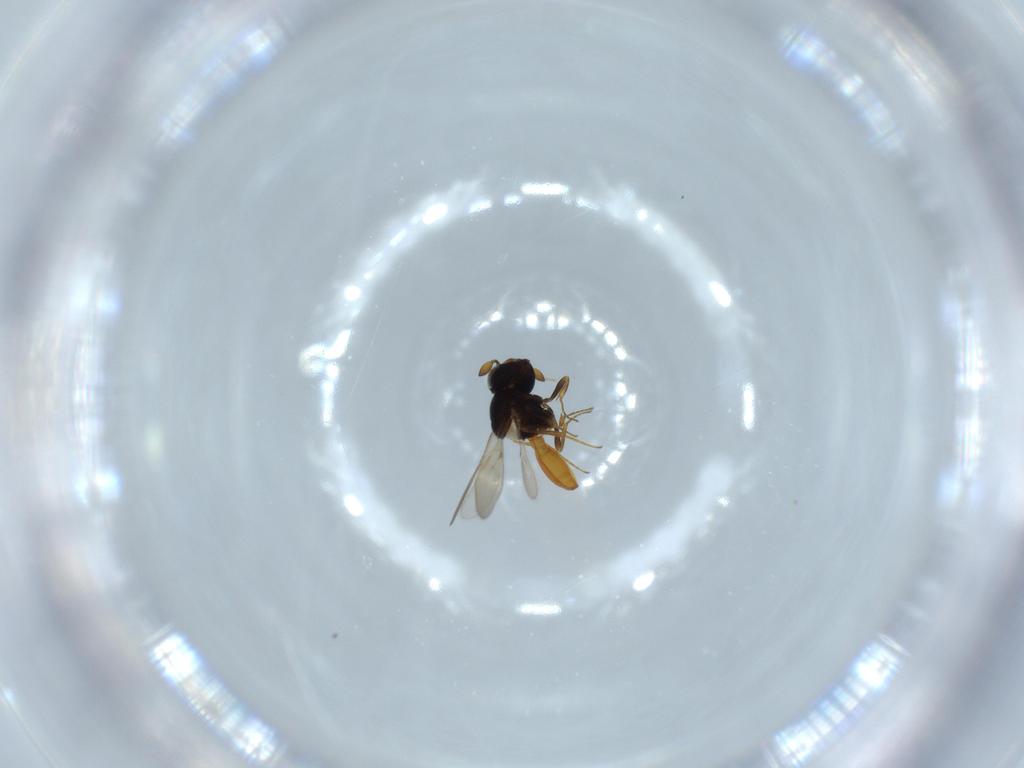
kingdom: Animalia
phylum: Arthropoda
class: Insecta
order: Hymenoptera
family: Scelionidae
